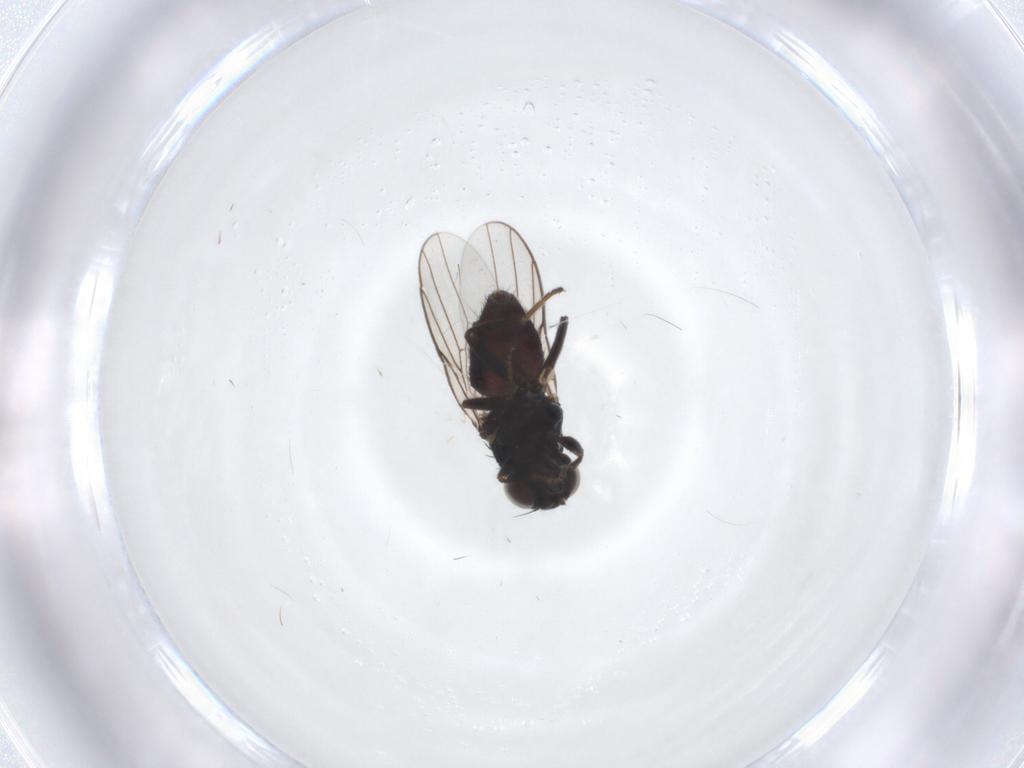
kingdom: Animalia
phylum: Arthropoda
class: Insecta
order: Diptera
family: Chloropidae
